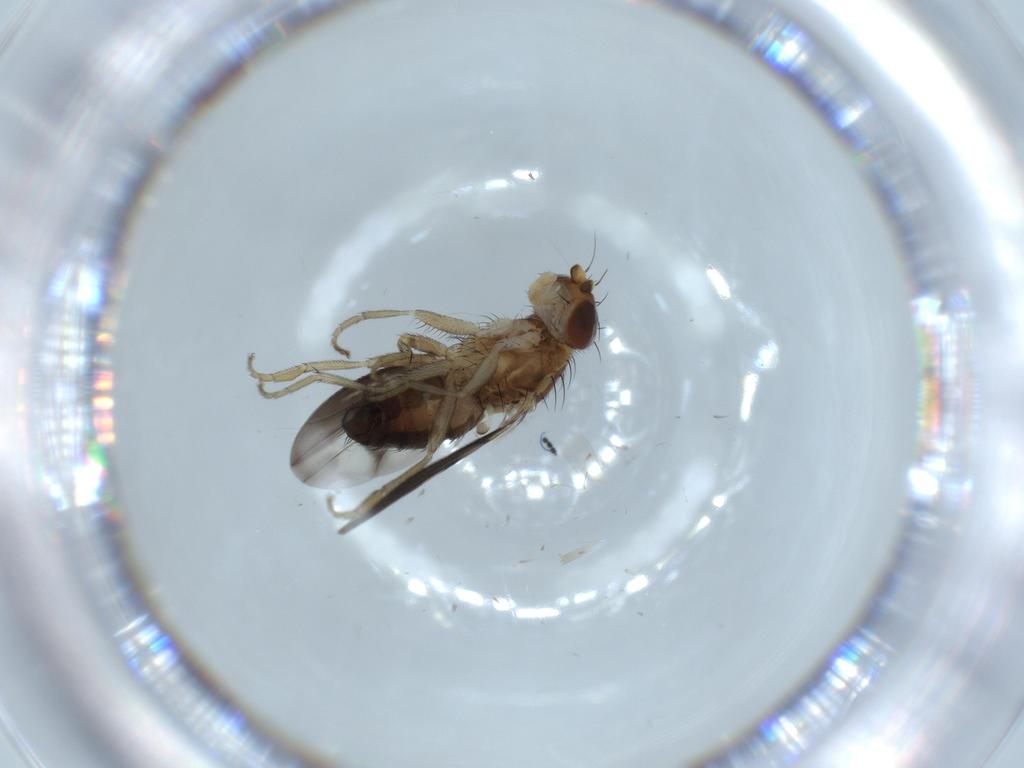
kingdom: Animalia
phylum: Arthropoda
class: Insecta
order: Diptera
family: Heleomyzidae
